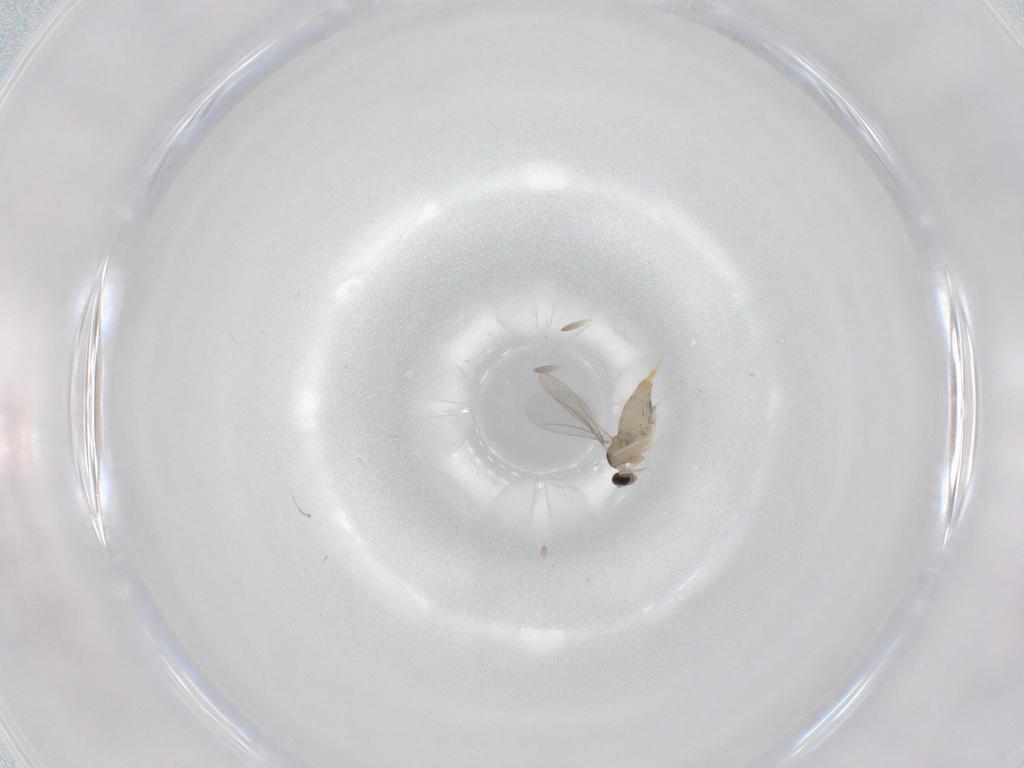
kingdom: Animalia
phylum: Arthropoda
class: Insecta
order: Diptera
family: Cecidomyiidae
